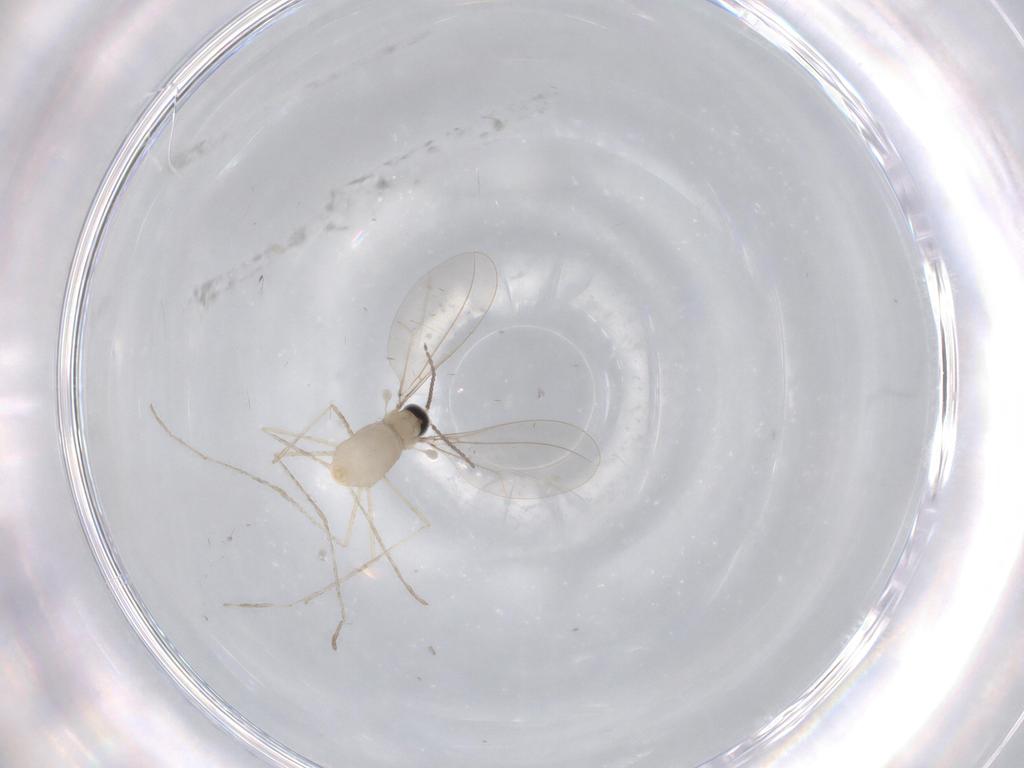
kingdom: Animalia
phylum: Arthropoda
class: Insecta
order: Diptera
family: Cecidomyiidae
